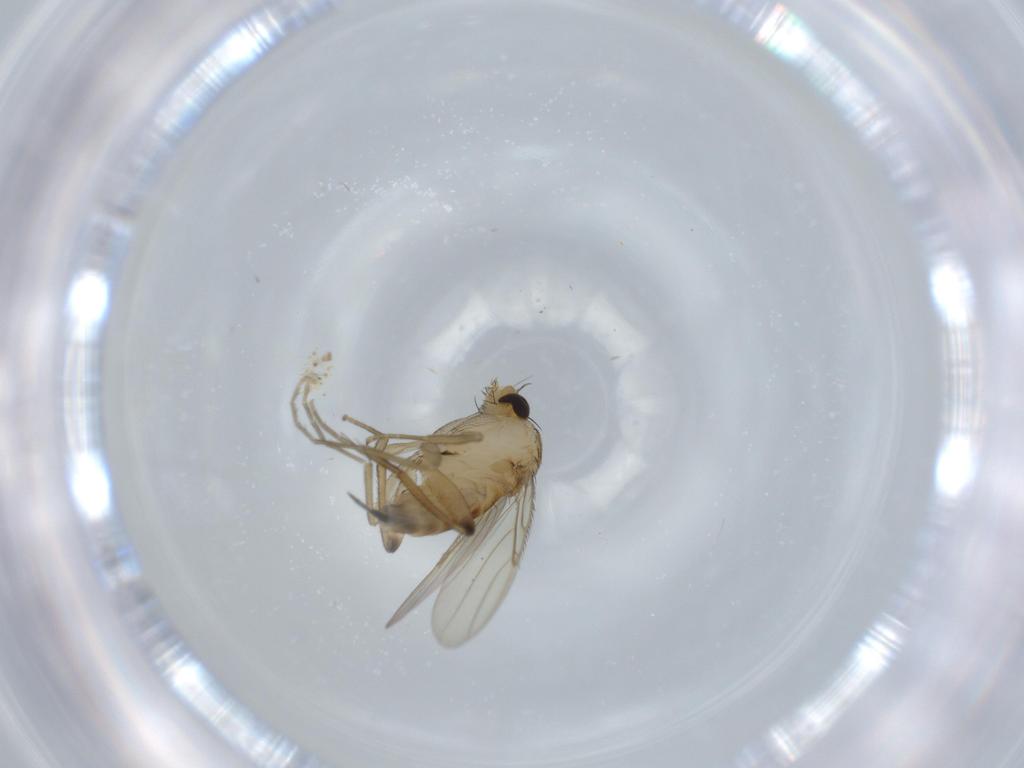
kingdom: Animalia
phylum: Arthropoda
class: Insecta
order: Diptera
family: Phoridae
